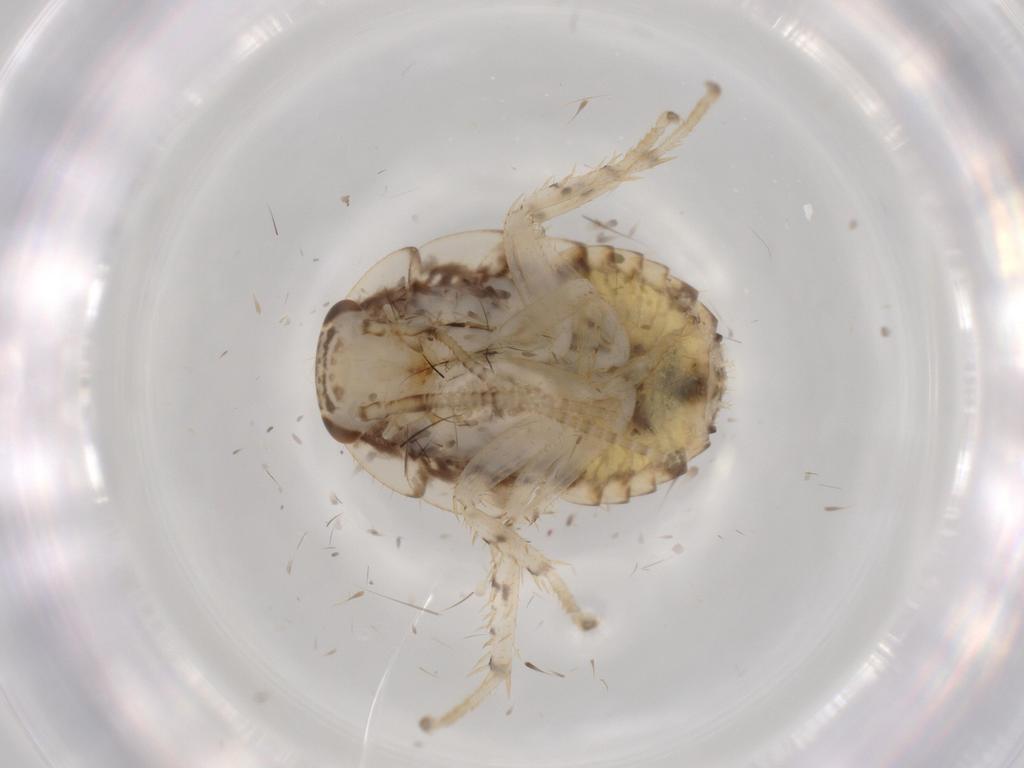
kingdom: Animalia
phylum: Arthropoda
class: Insecta
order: Blattodea
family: Ectobiidae
